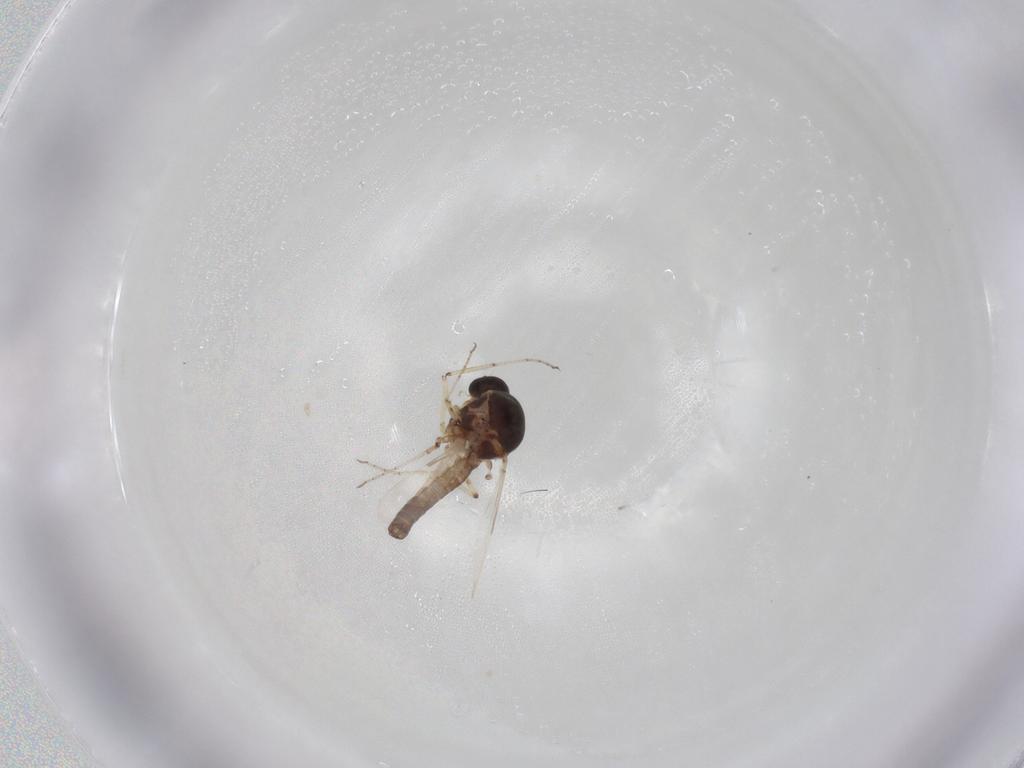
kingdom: Animalia
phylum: Arthropoda
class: Insecta
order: Diptera
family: Ceratopogonidae
